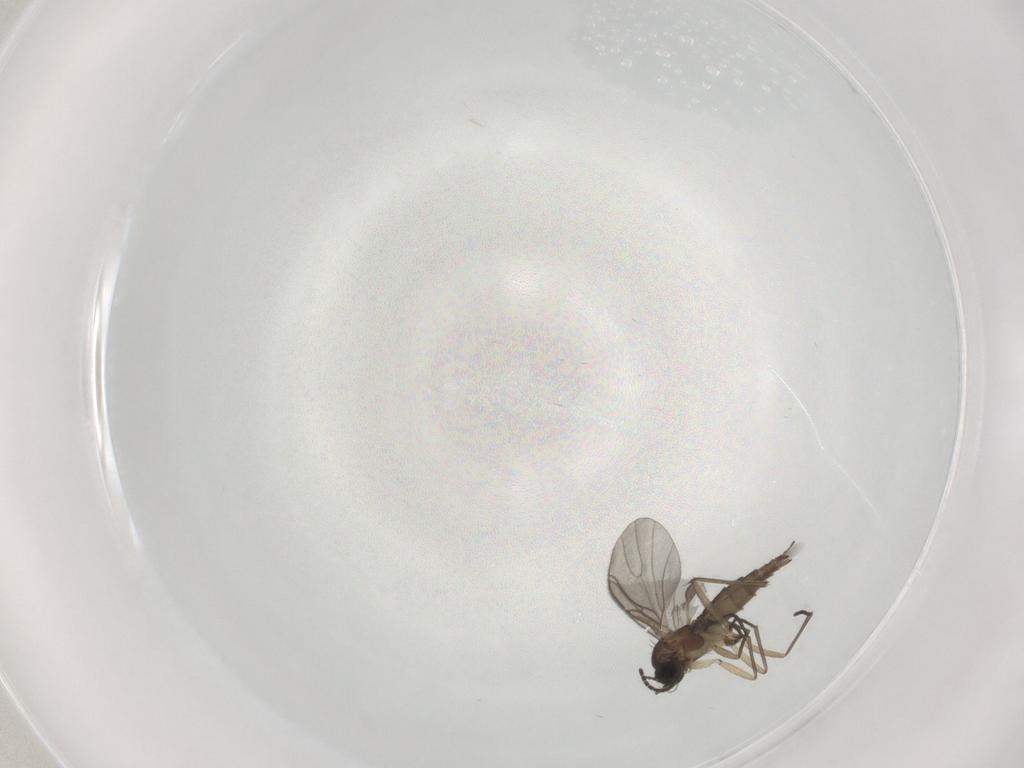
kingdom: Animalia
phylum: Arthropoda
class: Insecta
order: Diptera
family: Sciaridae
